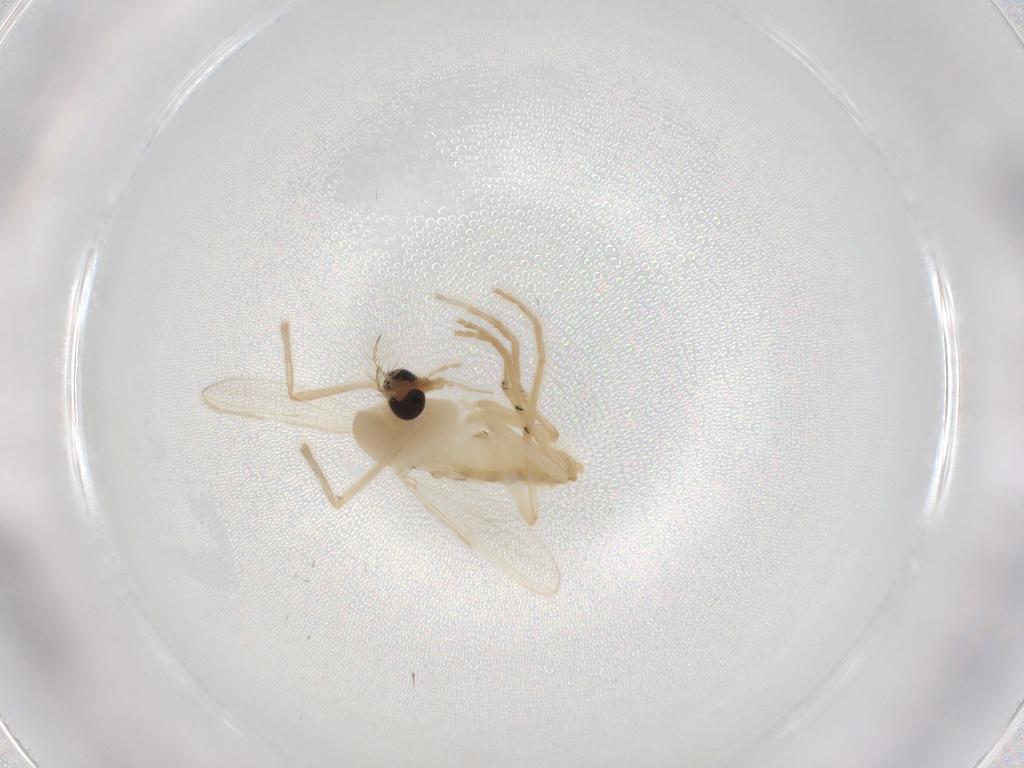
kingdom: Animalia
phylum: Arthropoda
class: Insecta
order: Diptera
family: Chironomidae
